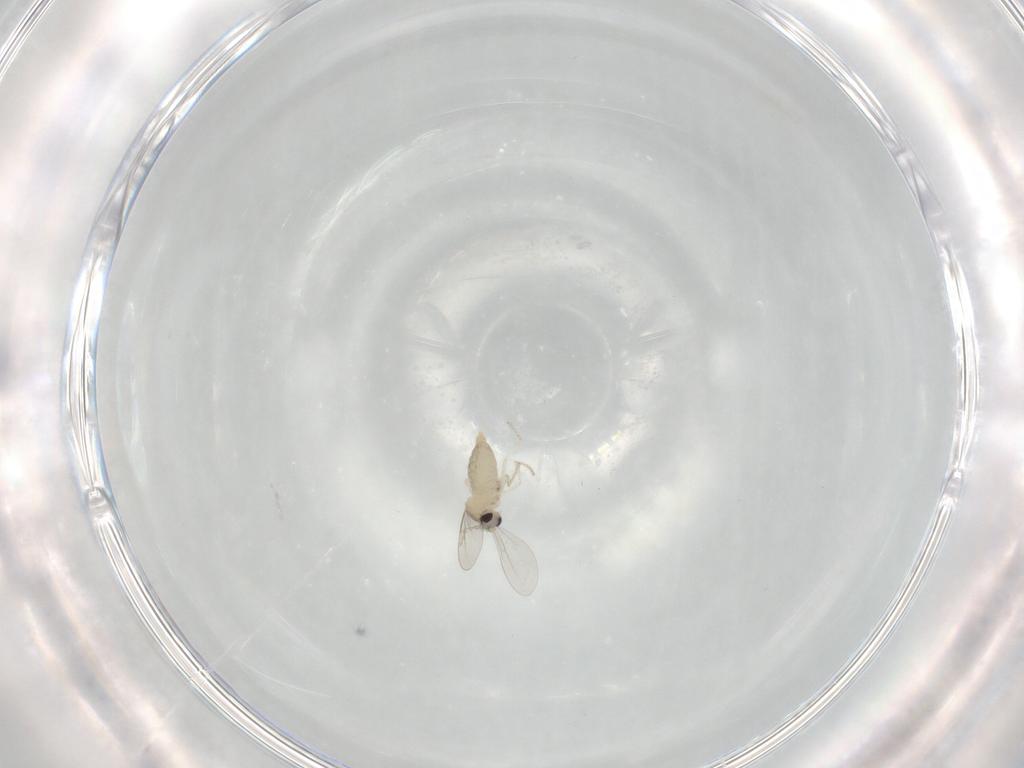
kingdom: Animalia
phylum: Arthropoda
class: Insecta
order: Diptera
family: Cecidomyiidae
